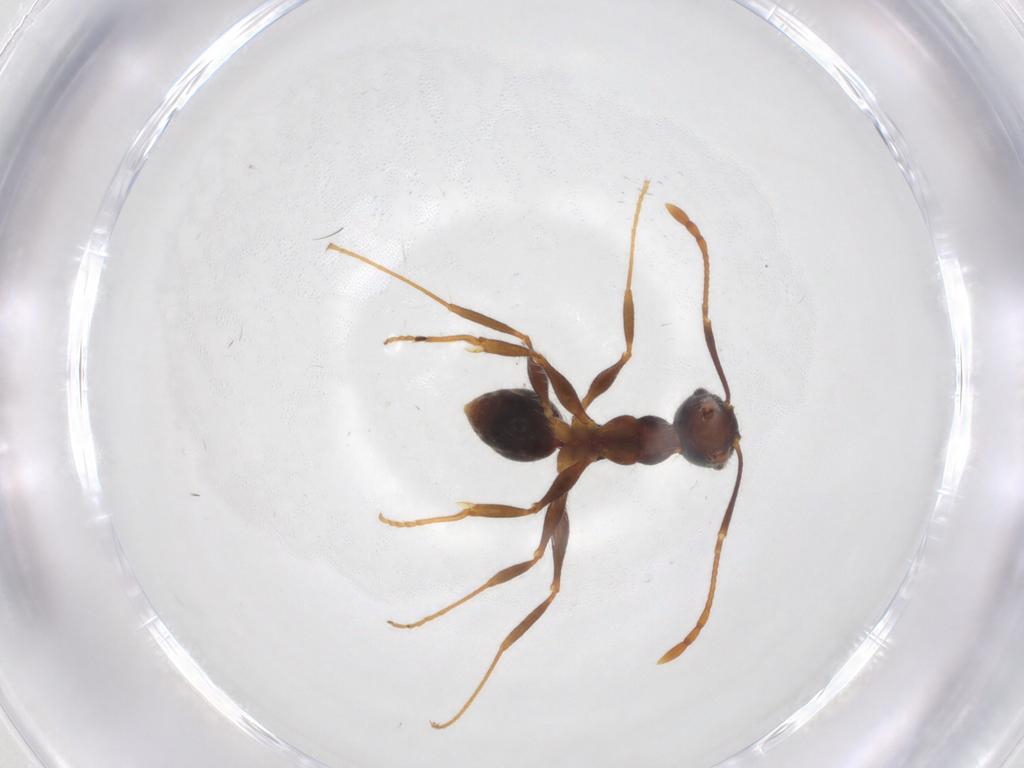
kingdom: Animalia
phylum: Arthropoda
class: Insecta
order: Hymenoptera
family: Formicidae
